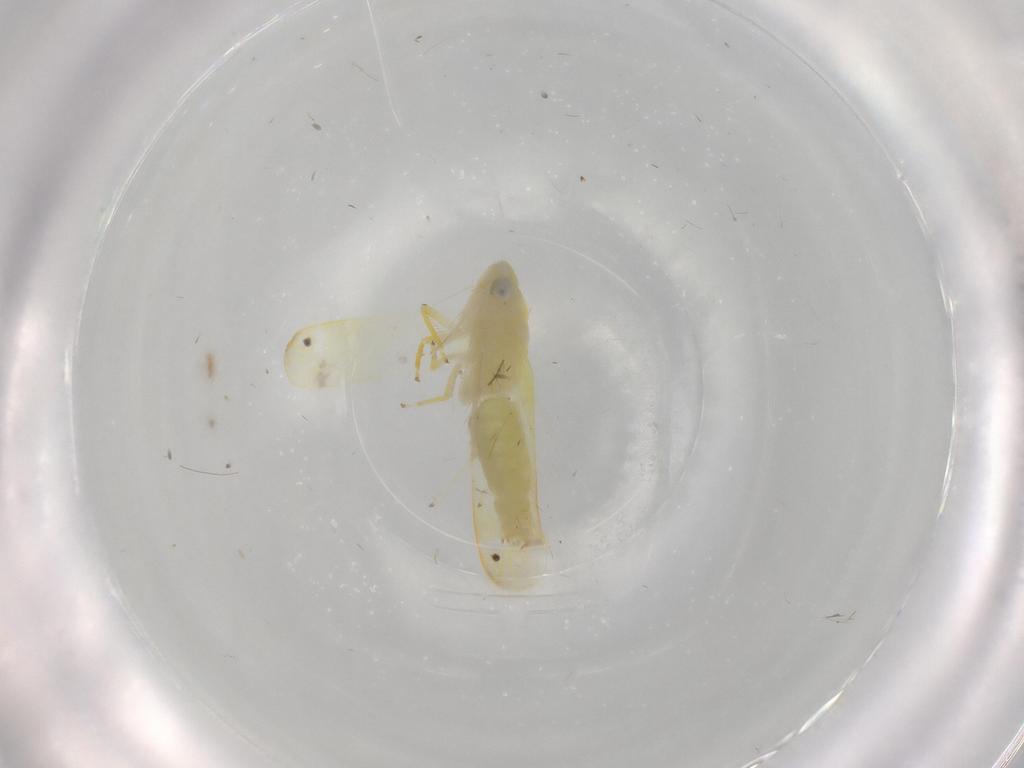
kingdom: Animalia
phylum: Arthropoda
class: Insecta
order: Hemiptera
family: Cicadellidae
